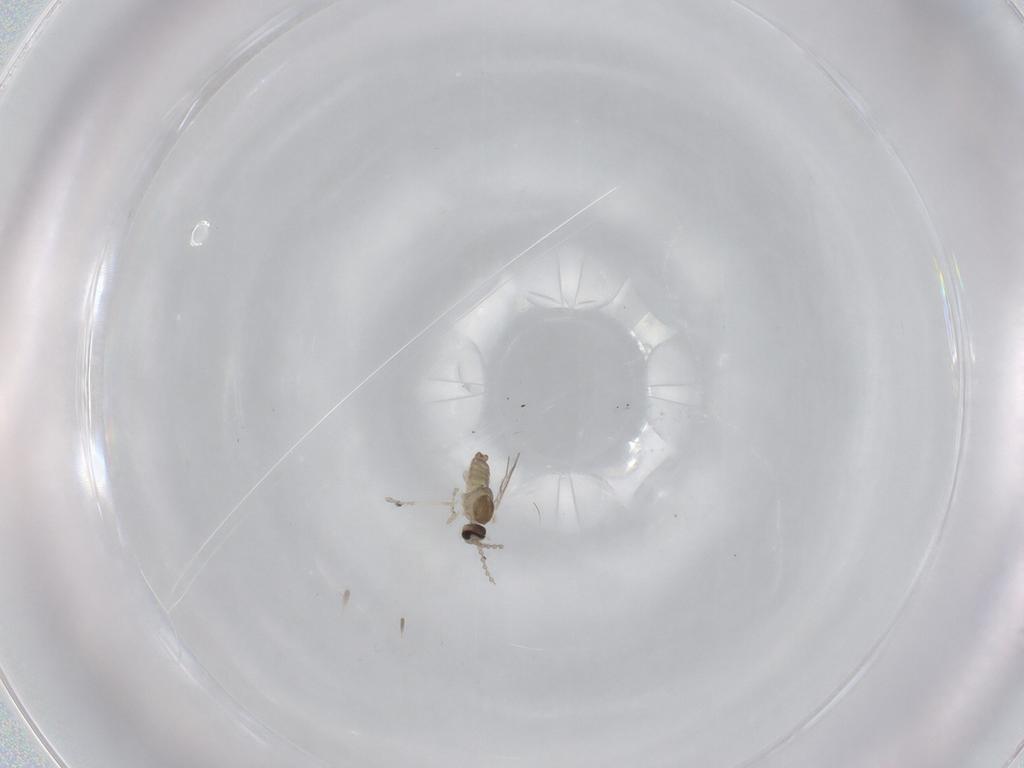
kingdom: Animalia
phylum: Arthropoda
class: Insecta
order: Diptera
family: Cecidomyiidae
